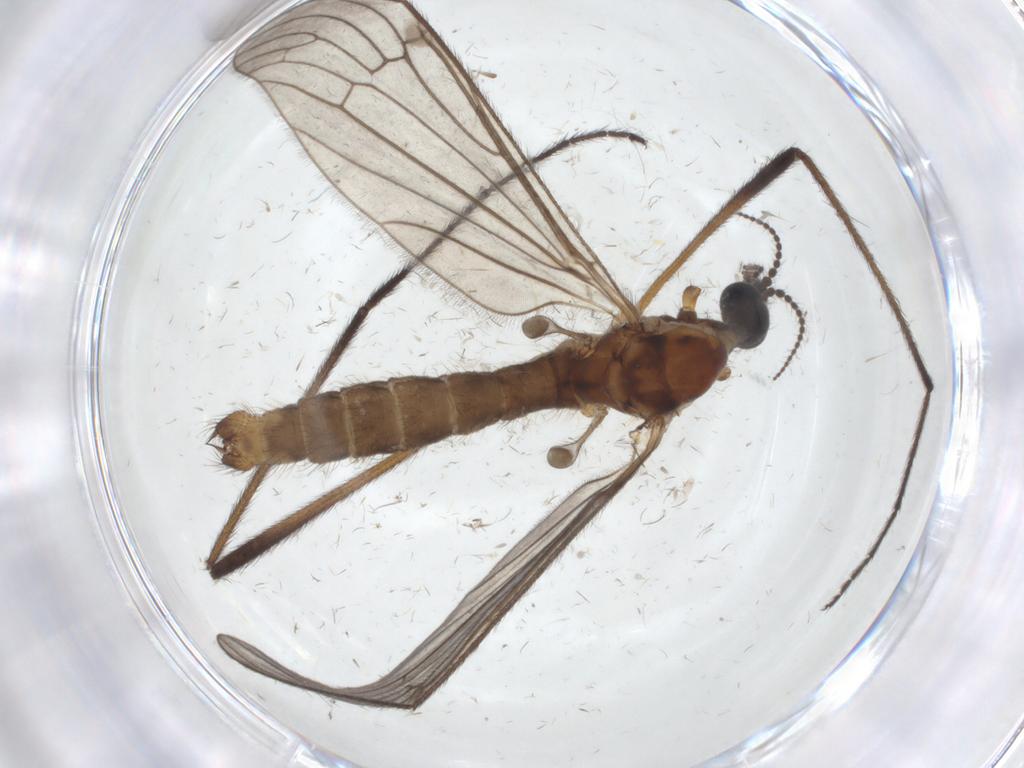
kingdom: Animalia
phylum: Arthropoda
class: Insecta
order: Diptera
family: Limoniidae
